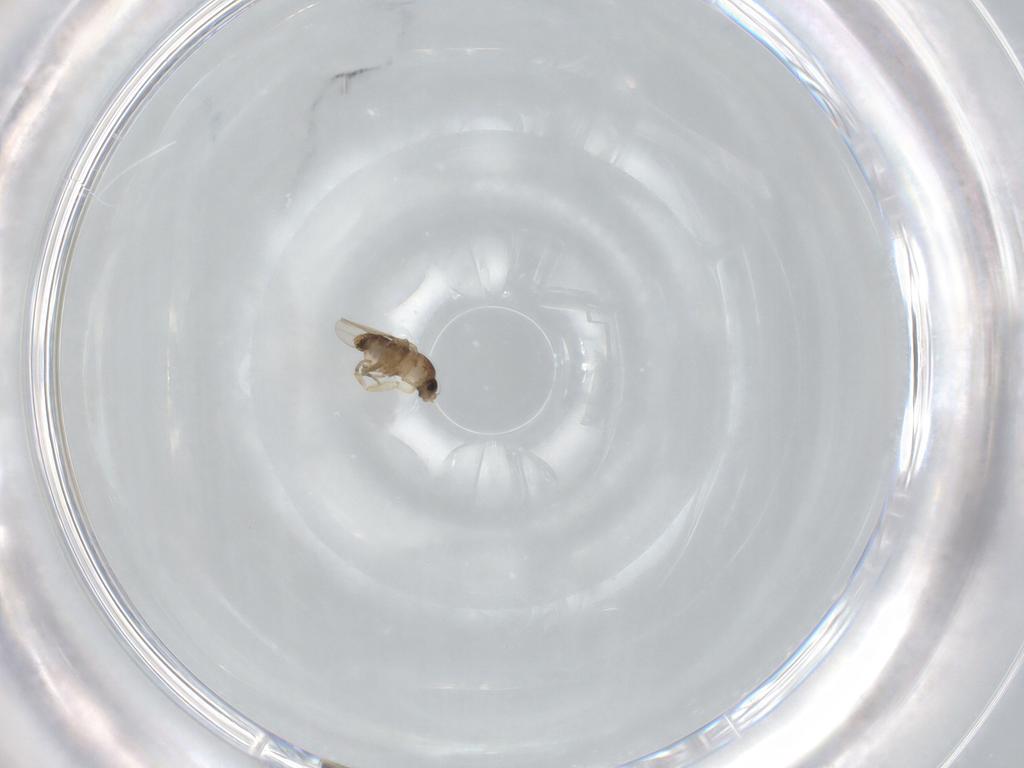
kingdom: Animalia
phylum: Arthropoda
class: Insecta
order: Diptera
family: Phoridae
